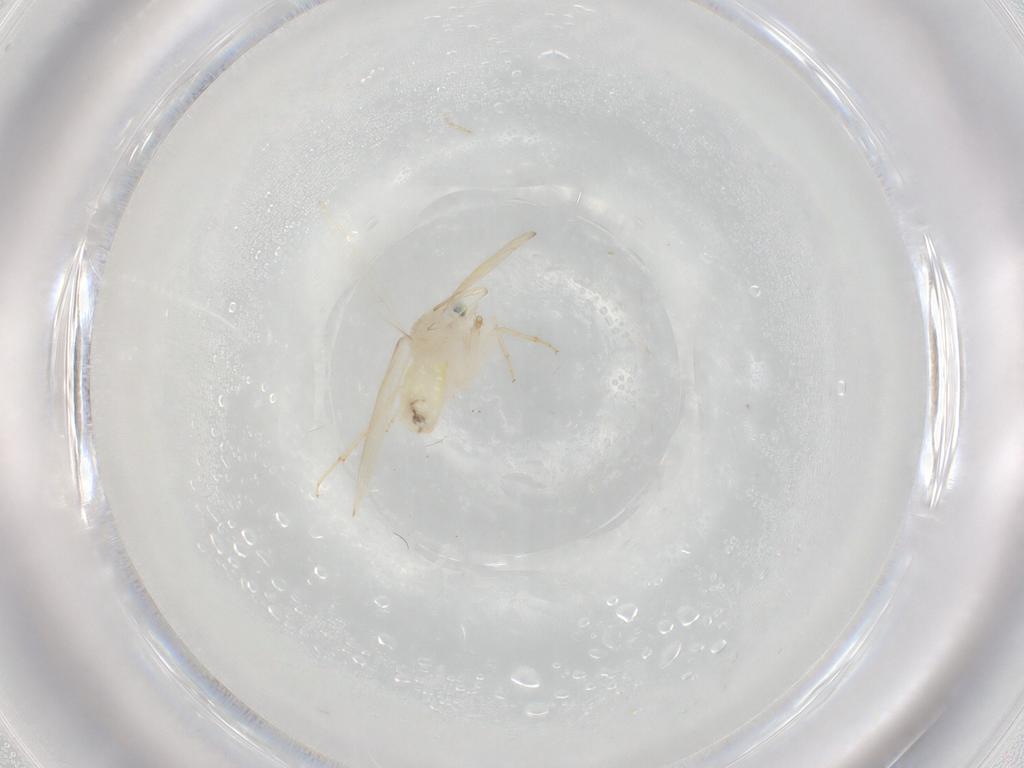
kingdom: Animalia
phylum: Arthropoda
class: Insecta
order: Psocodea
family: Lepidopsocidae
